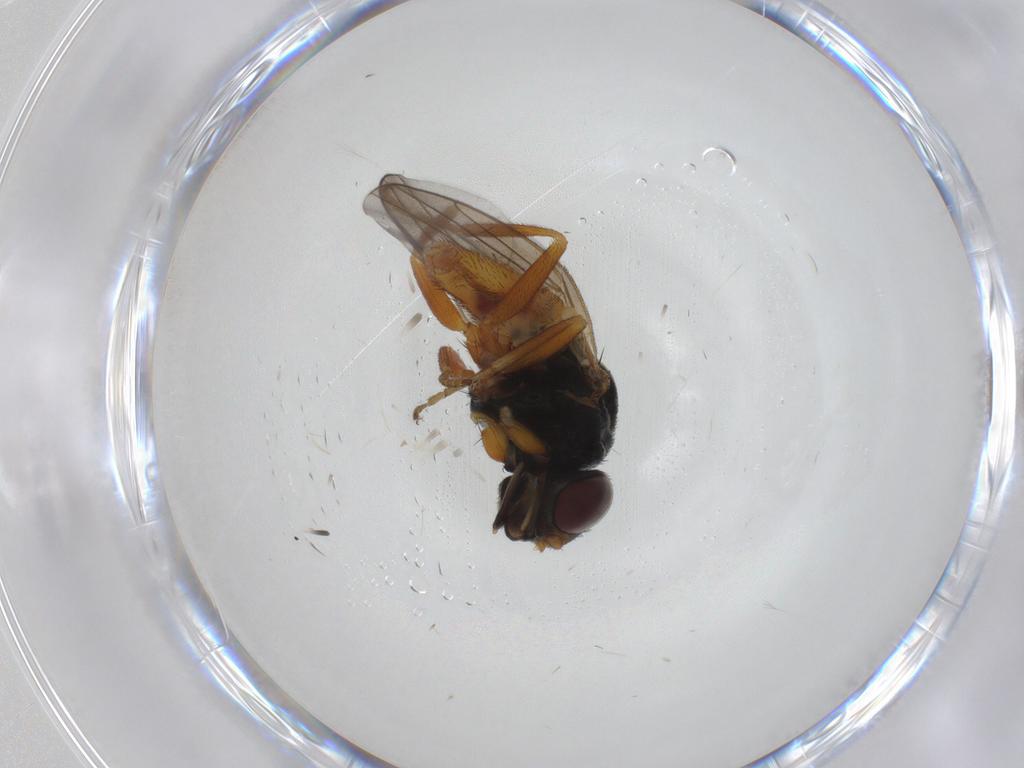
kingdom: Animalia
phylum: Arthropoda
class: Insecta
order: Diptera
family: Chloropidae
